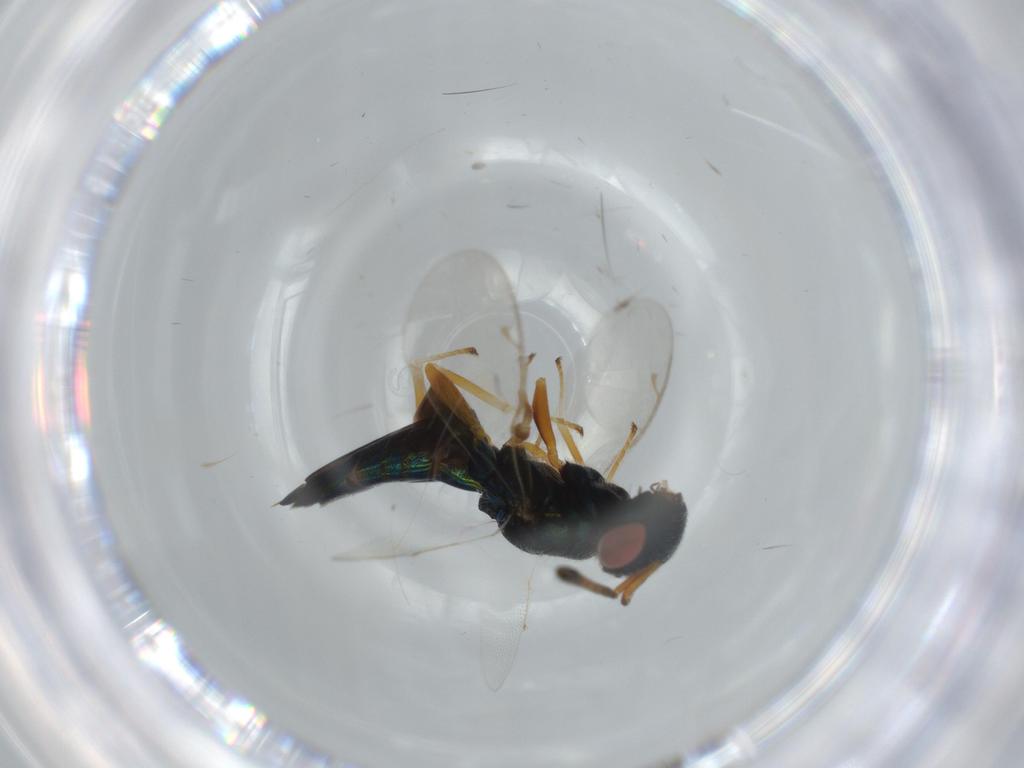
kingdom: Animalia
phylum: Arthropoda
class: Insecta
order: Hymenoptera
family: Pteromalidae
